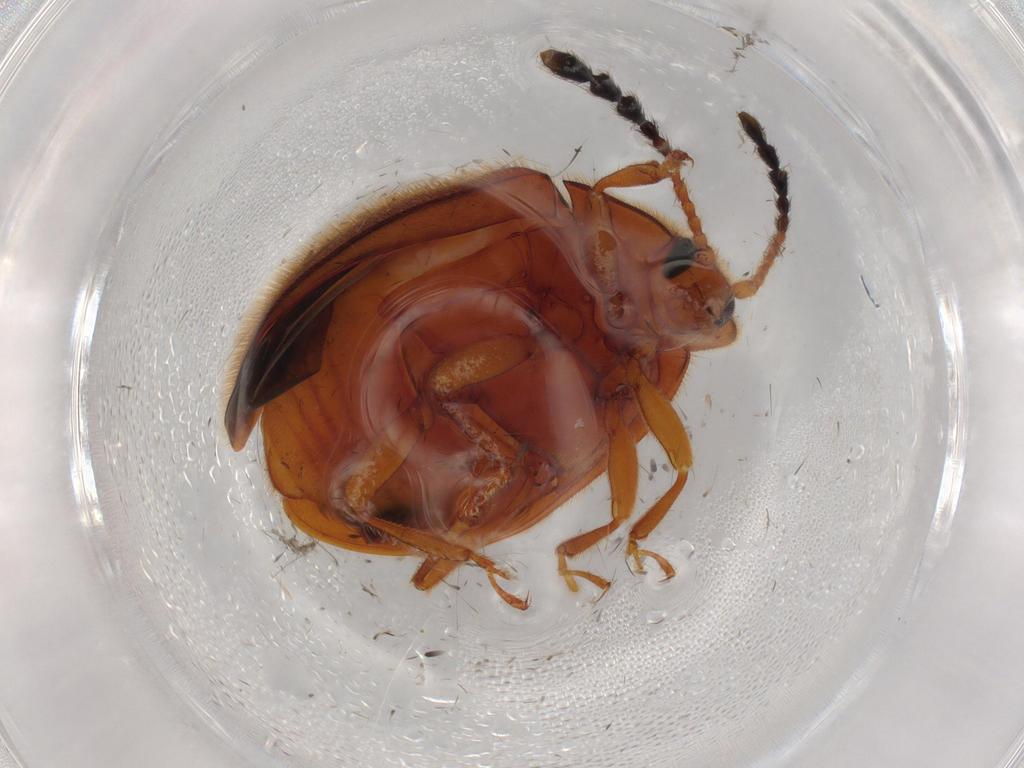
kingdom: Animalia
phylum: Arthropoda
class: Insecta
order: Coleoptera
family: Endomychidae
